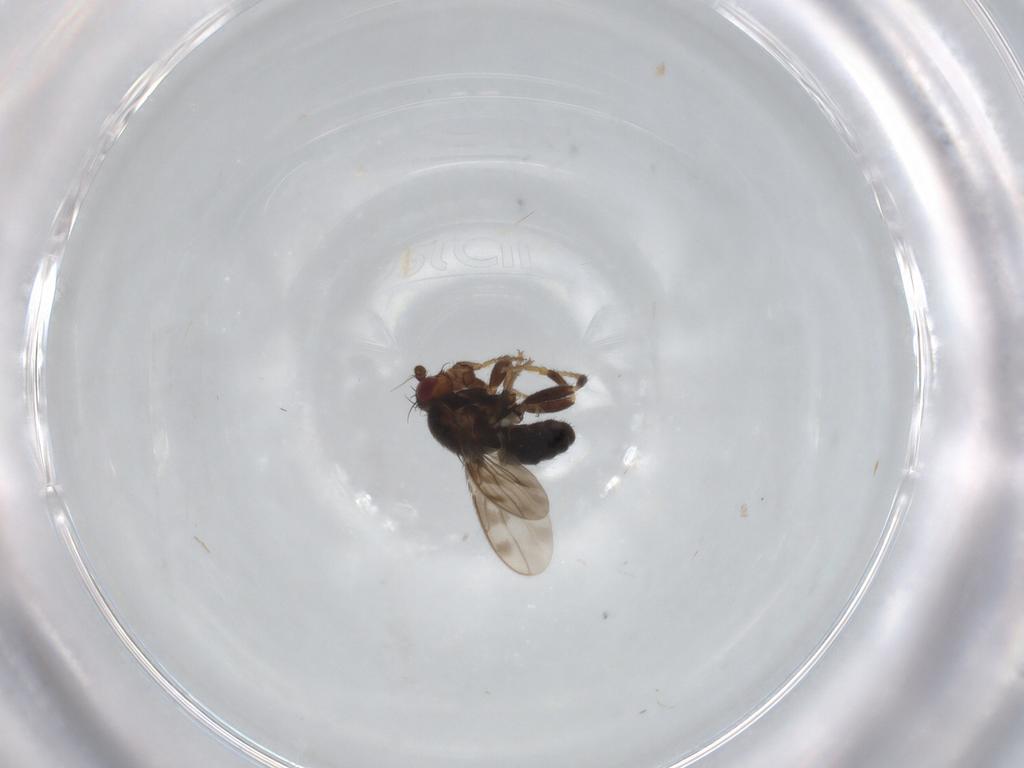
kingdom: Animalia
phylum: Arthropoda
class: Insecta
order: Diptera
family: Sphaeroceridae
